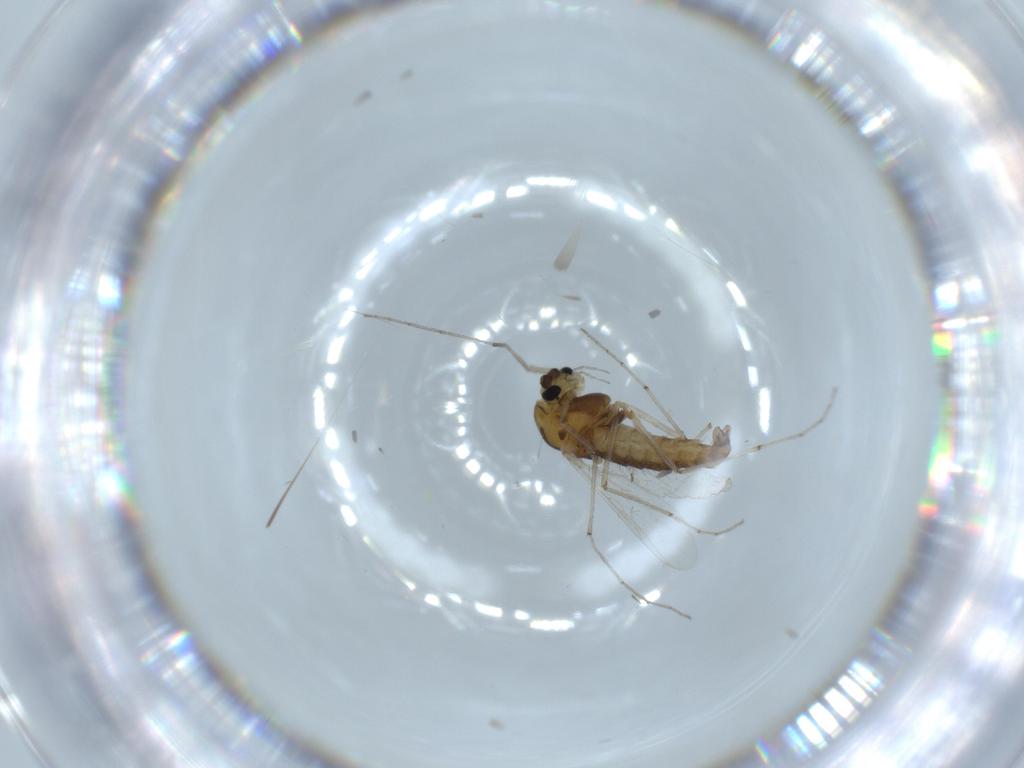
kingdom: Animalia
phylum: Arthropoda
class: Insecta
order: Diptera
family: Chironomidae
